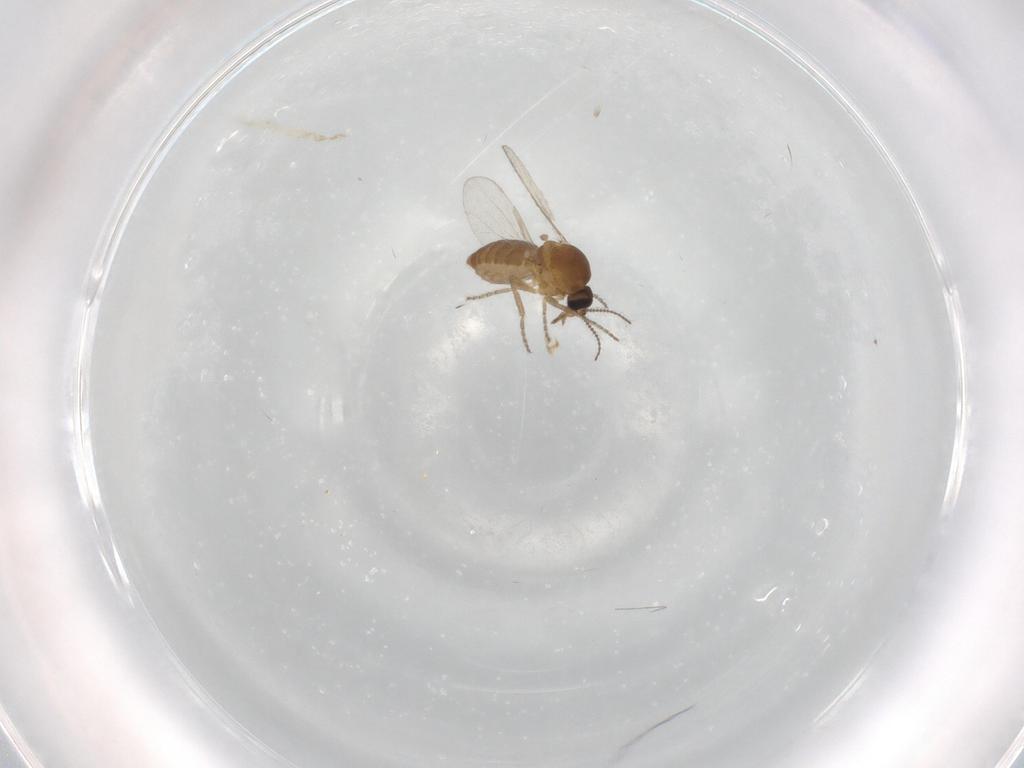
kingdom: Animalia
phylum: Arthropoda
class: Insecta
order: Diptera
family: Ceratopogonidae
